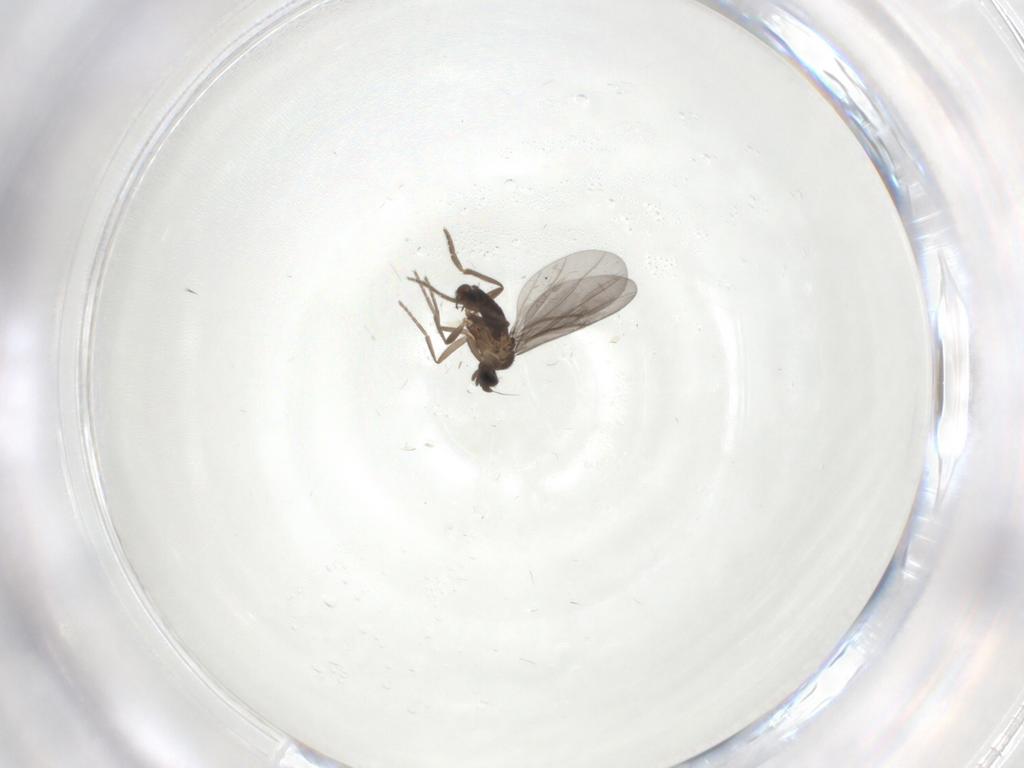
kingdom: Animalia
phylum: Arthropoda
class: Insecta
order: Diptera
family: Phoridae
